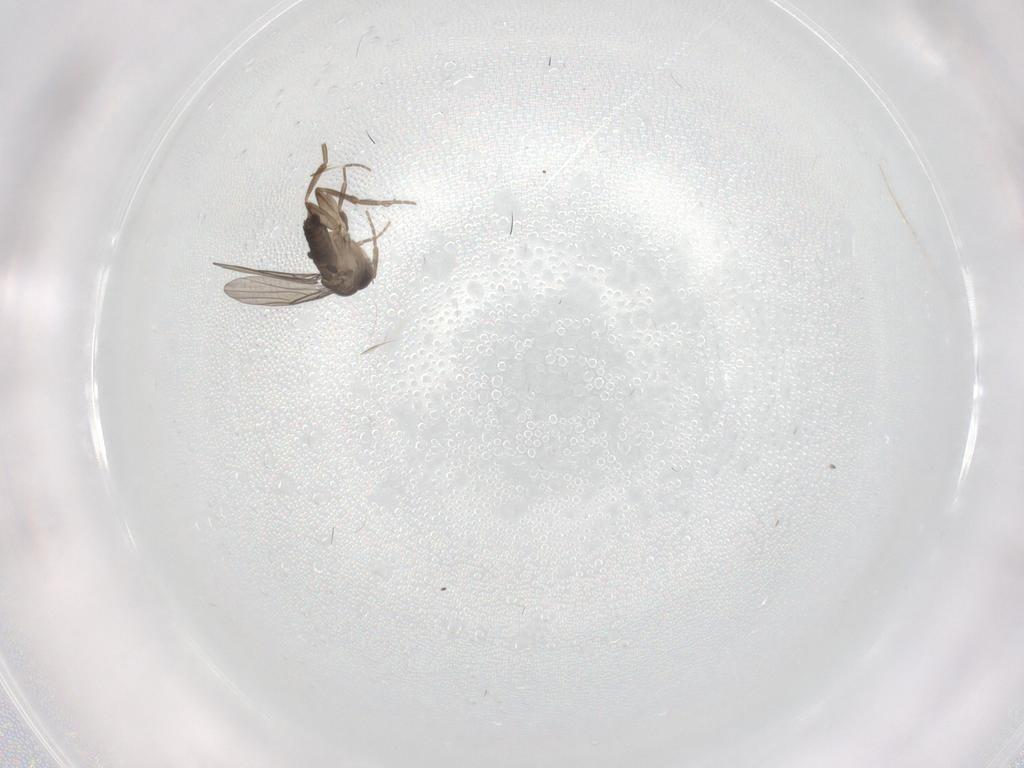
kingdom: Animalia
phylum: Arthropoda
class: Insecta
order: Diptera
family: Phoridae
